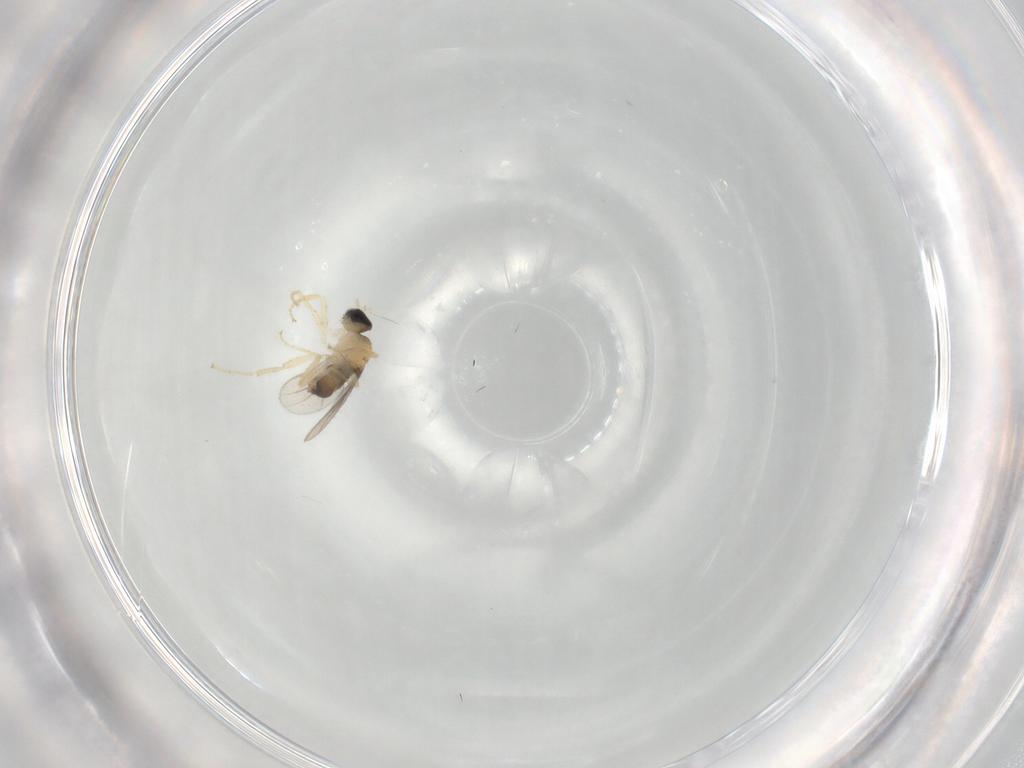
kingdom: Animalia
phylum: Arthropoda
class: Insecta
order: Diptera
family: Hybotidae
